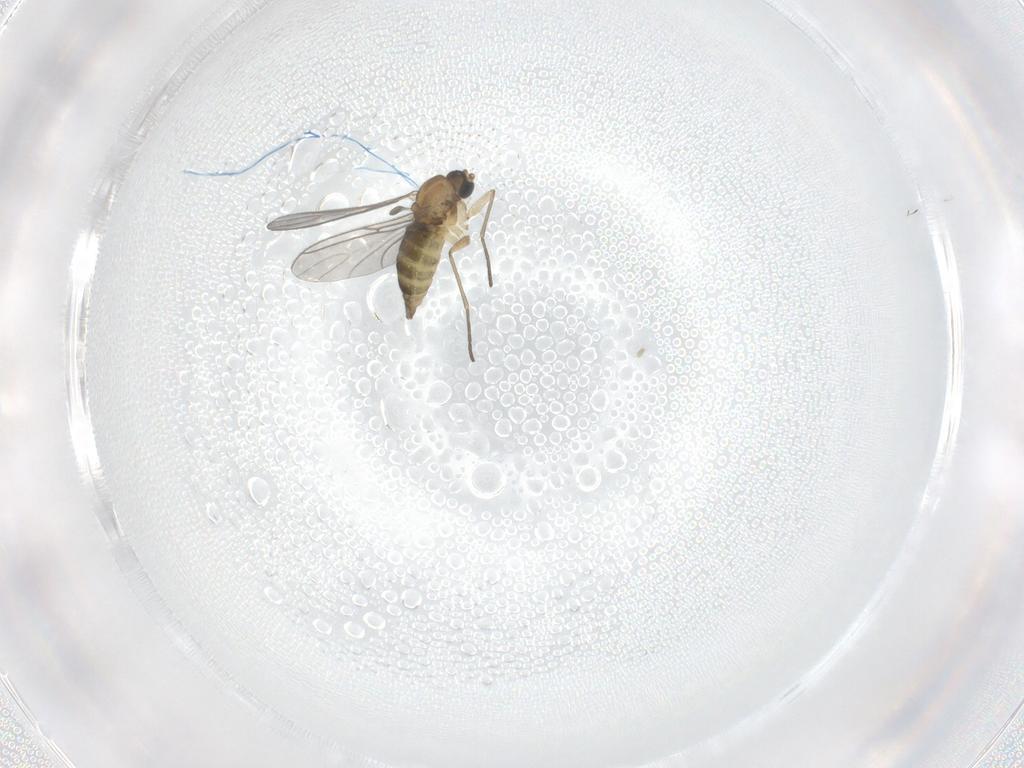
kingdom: Animalia
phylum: Arthropoda
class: Insecta
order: Diptera
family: Sciaridae
